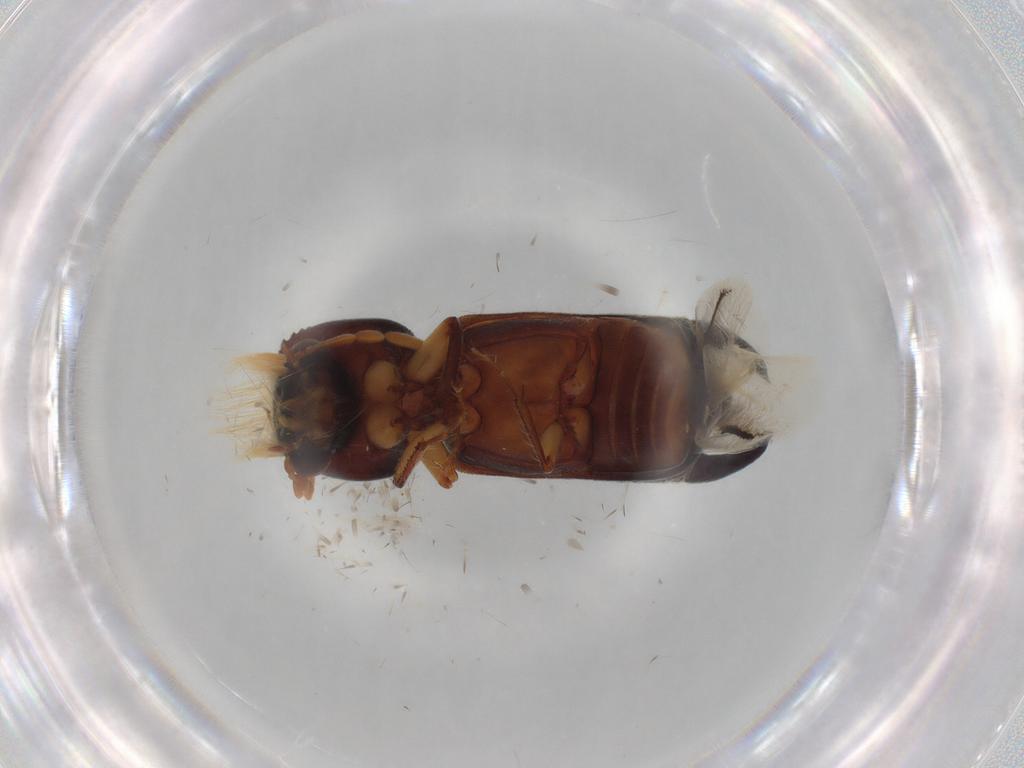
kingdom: Animalia
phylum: Arthropoda
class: Insecta
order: Coleoptera
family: Bostrichidae
